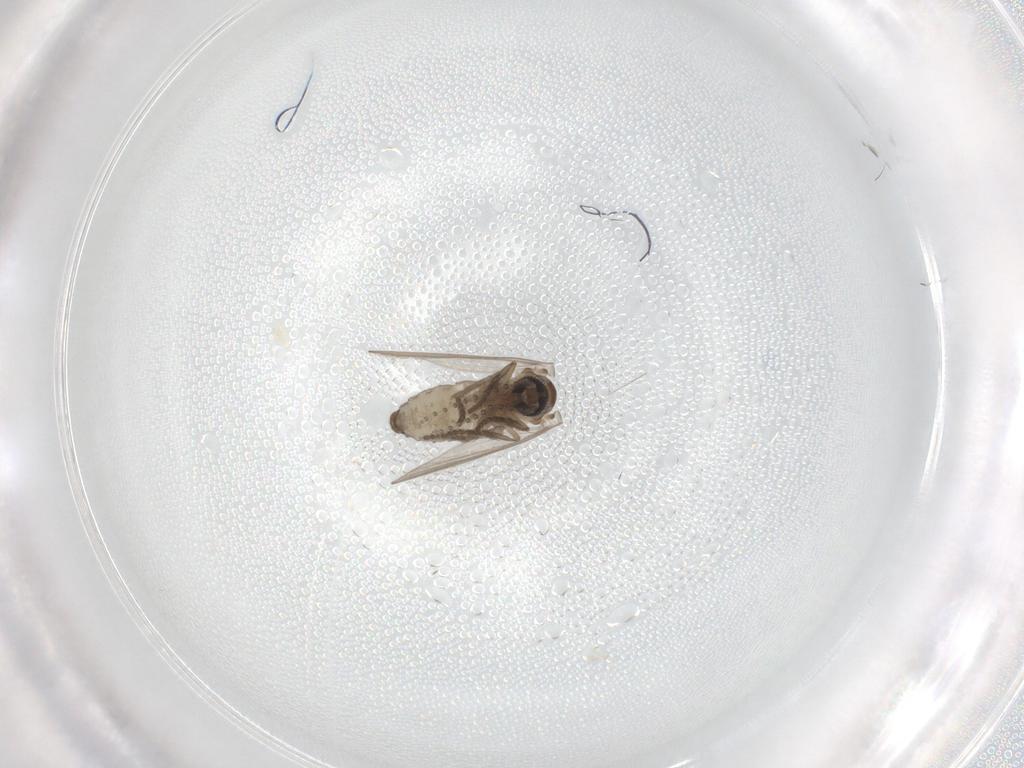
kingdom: Animalia
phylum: Arthropoda
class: Insecta
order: Diptera
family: Psychodidae
